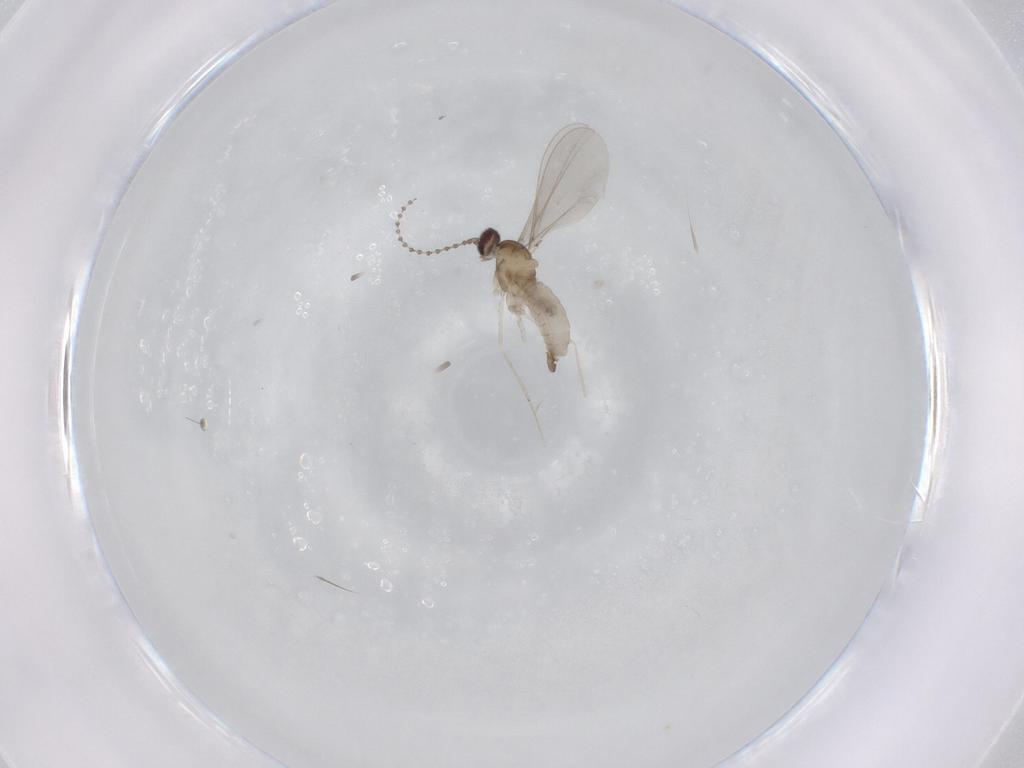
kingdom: Animalia
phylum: Arthropoda
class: Insecta
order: Diptera
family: Cecidomyiidae
